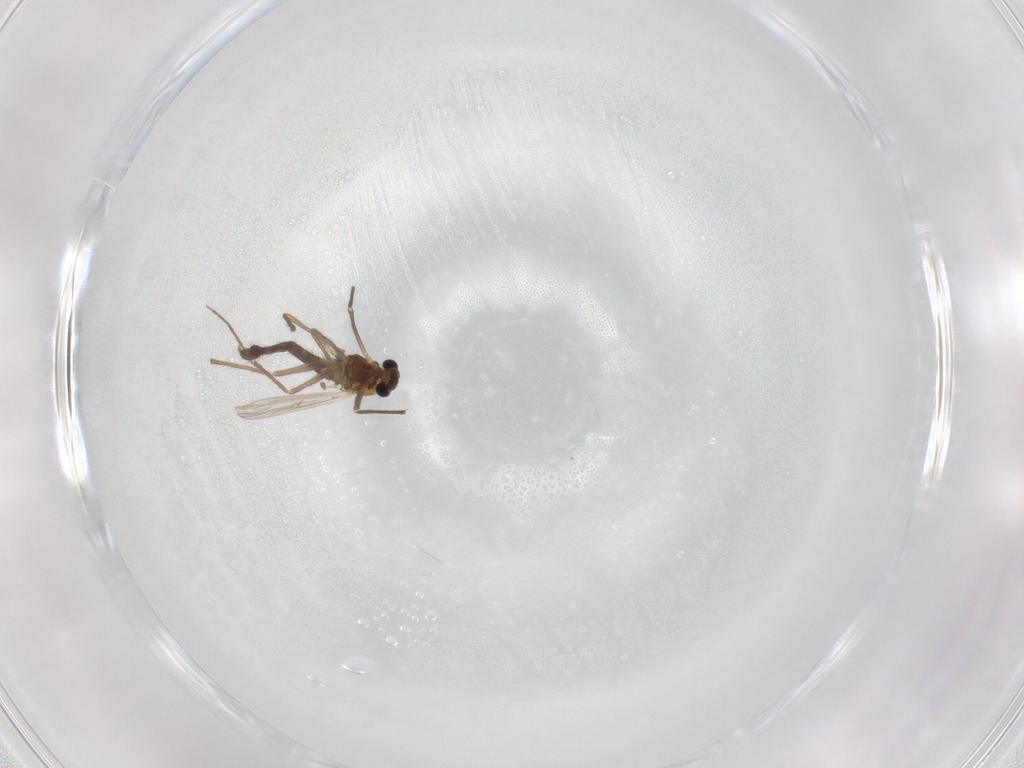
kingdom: Animalia
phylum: Arthropoda
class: Insecta
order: Diptera
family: Chironomidae
